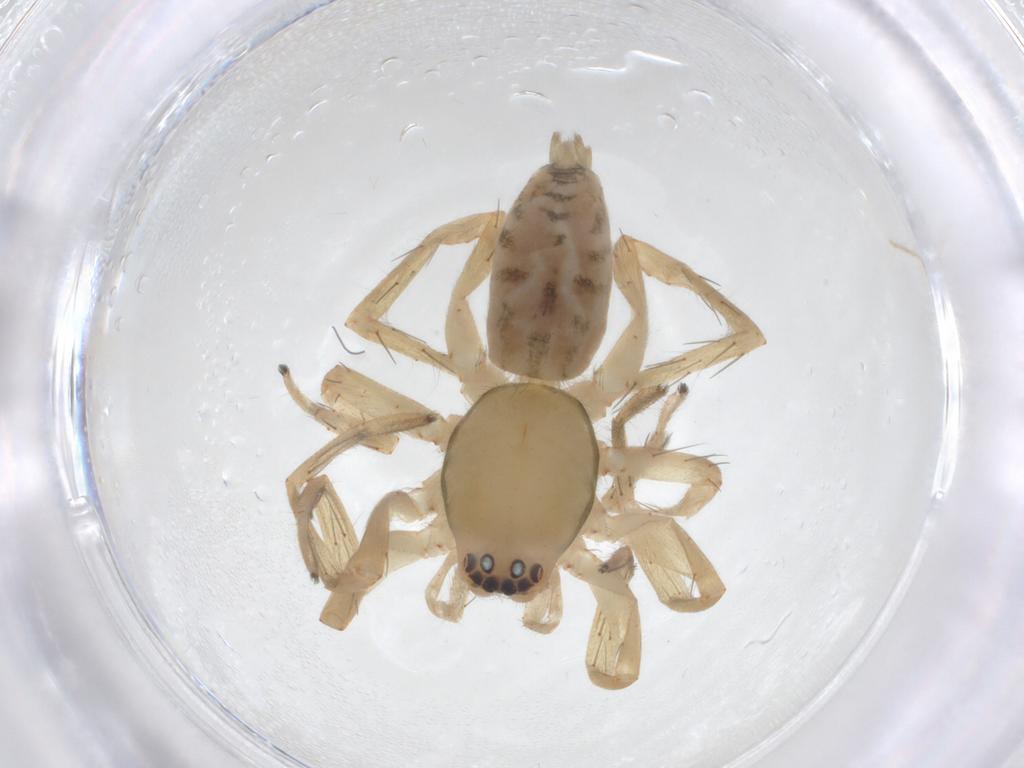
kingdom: Animalia
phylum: Arthropoda
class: Arachnida
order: Araneae
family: Clubionidae
